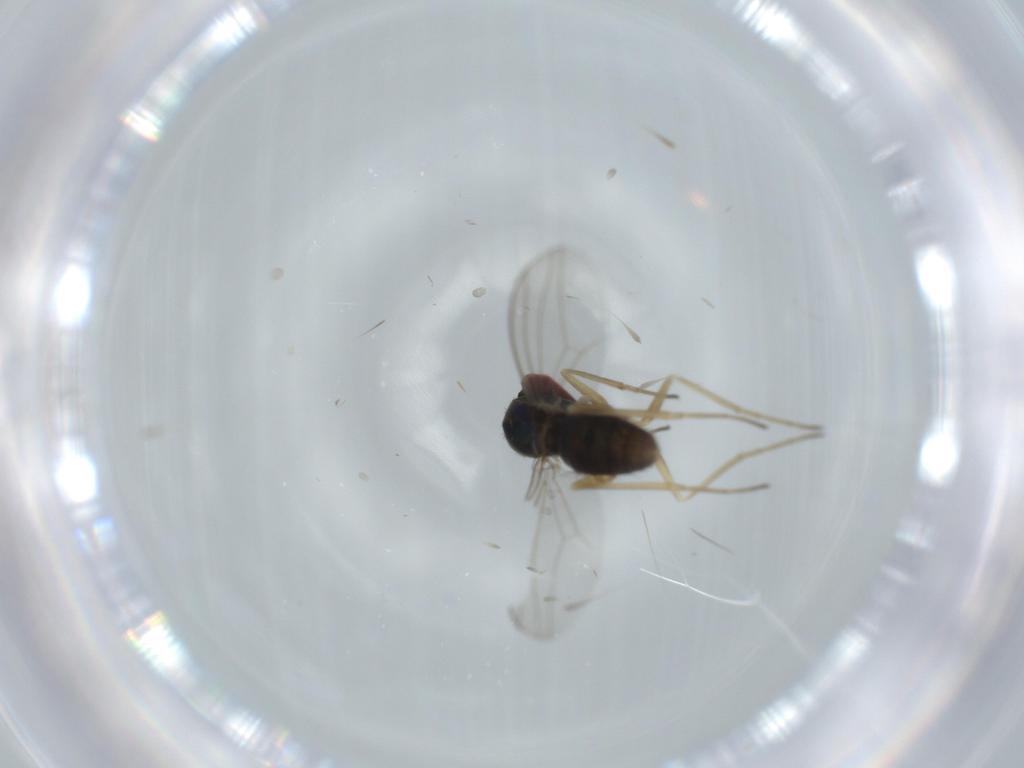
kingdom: Animalia
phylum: Arthropoda
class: Insecta
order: Diptera
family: Dolichopodidae
